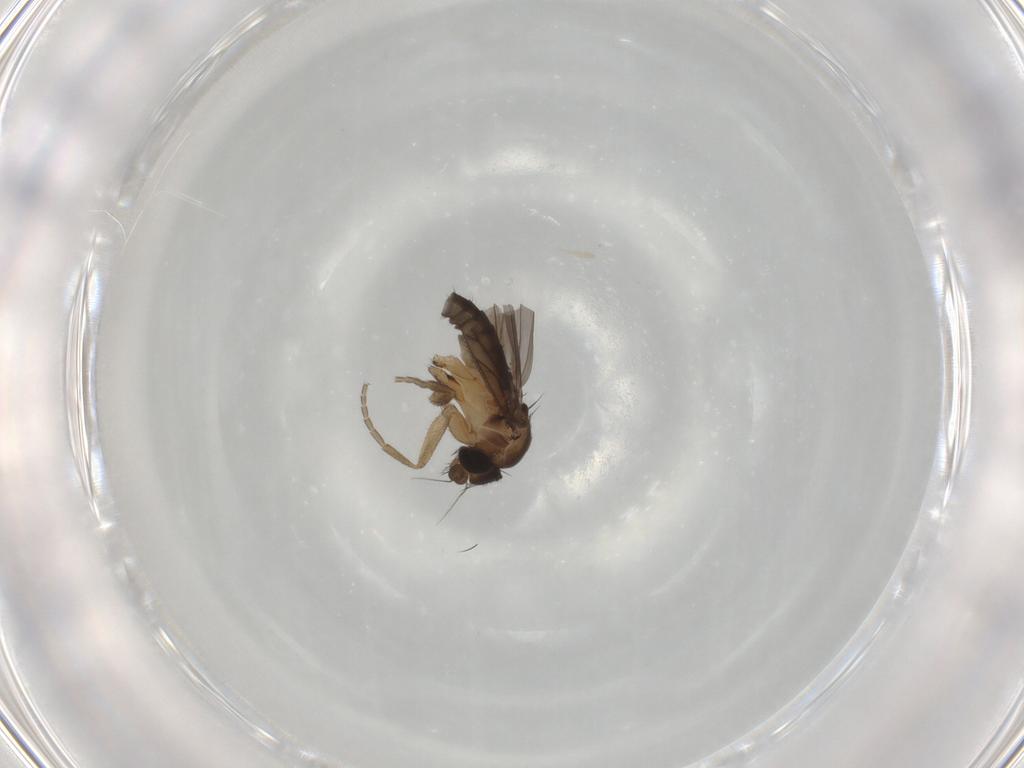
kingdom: Animalia
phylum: Arthropoda
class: Insecta
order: Diptera
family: Phoridae
